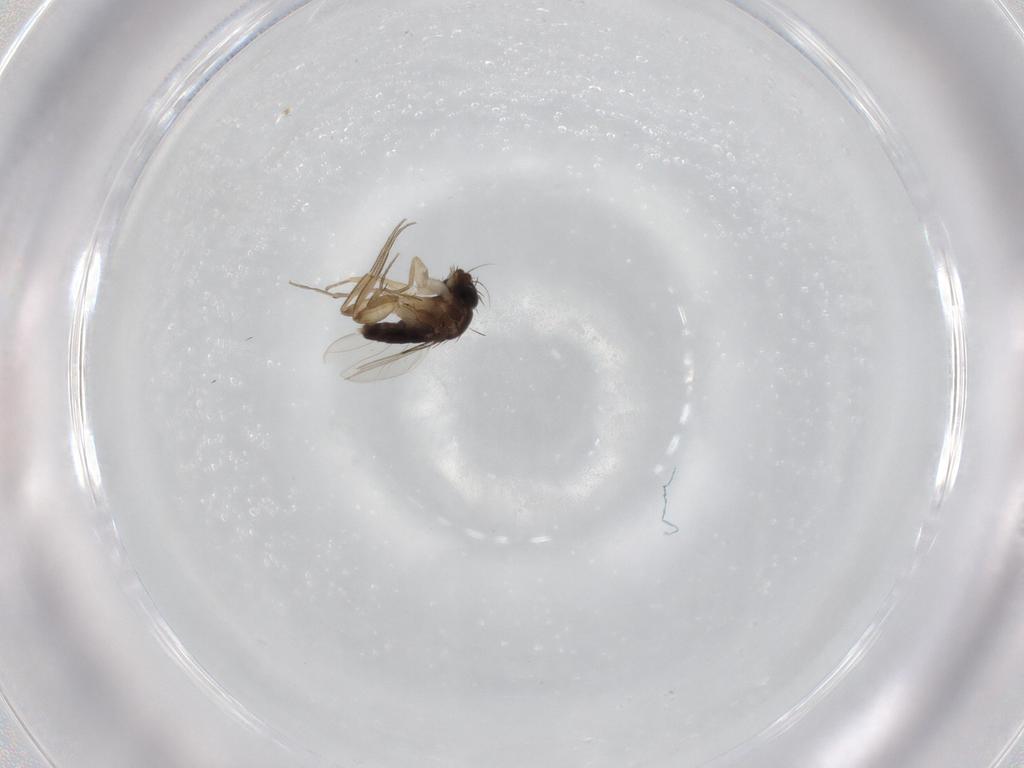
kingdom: Animalia
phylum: Arthropoda
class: Insecta
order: Diptera
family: Phoridae
